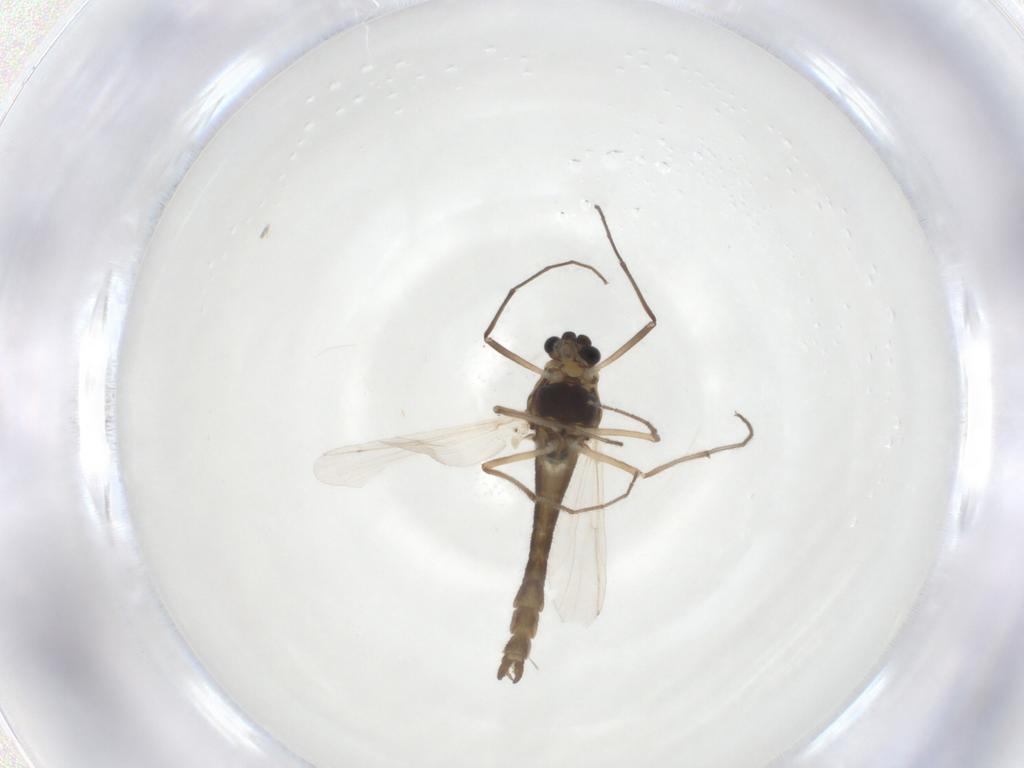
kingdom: Animalia
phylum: Arthropoda
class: Insecta
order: Diptera
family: Chironomidae
